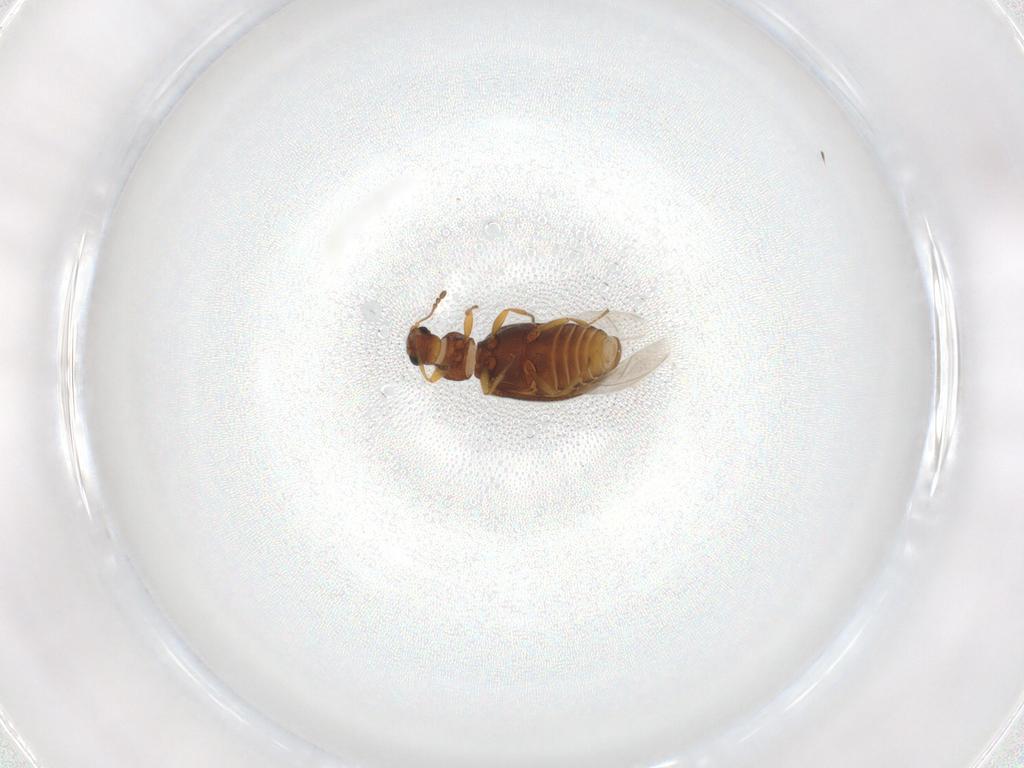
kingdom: Animalia
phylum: Arthropoda
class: Insecta
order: Coleoptera
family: Latridiidae
